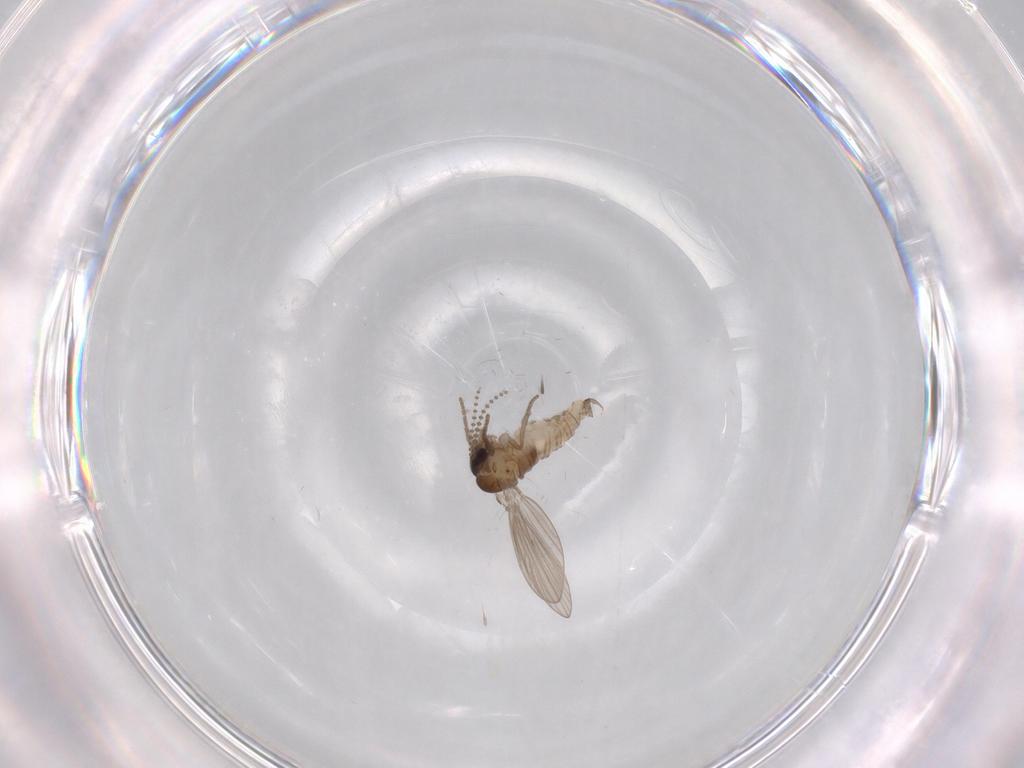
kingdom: Animalia
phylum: Arthropoda
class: Insecta
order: Diptera
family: Psychodidae
